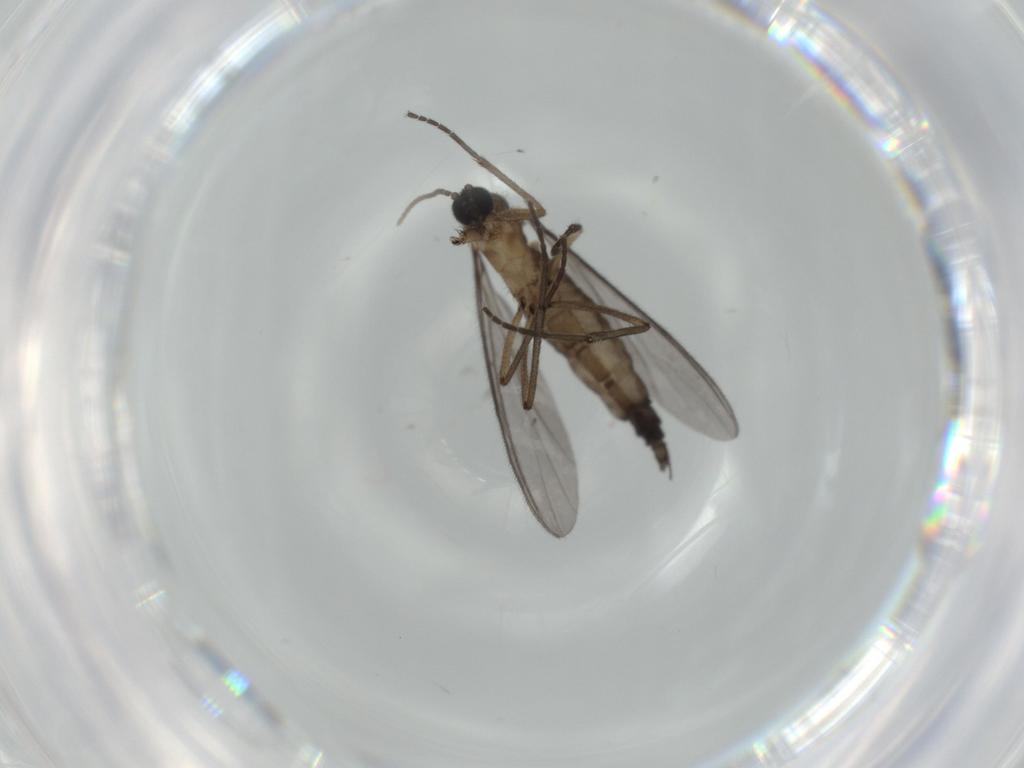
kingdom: Animalia
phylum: Arthropoda
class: Insecta
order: Diptera
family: Sciaridae
